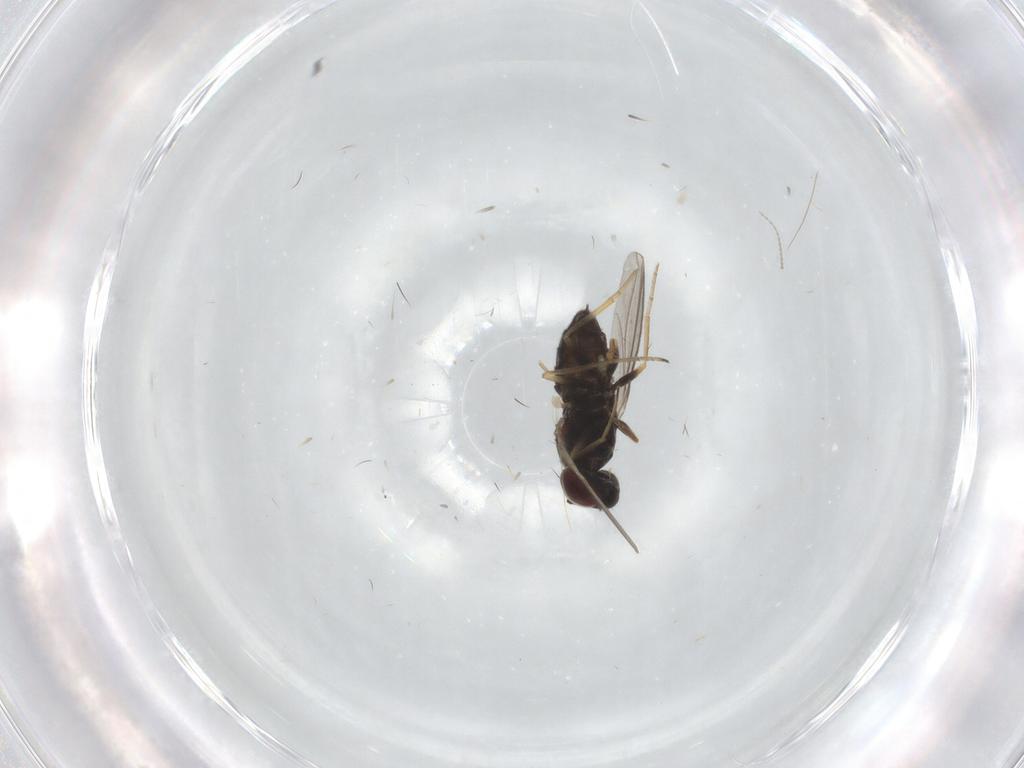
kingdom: Animalia
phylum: Arthropoda
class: Insecta
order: Diptera
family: Dolichopodidae
